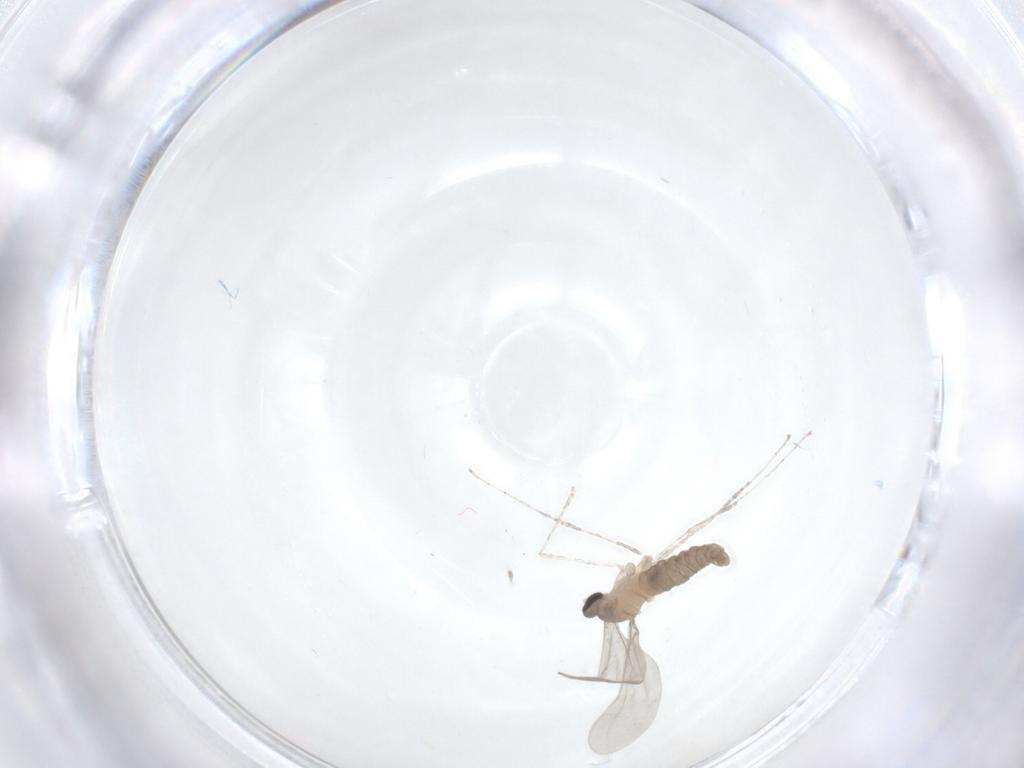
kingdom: Animalia
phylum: Arthropoda
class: Insecta
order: Diptera
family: Cecidomyiidae
